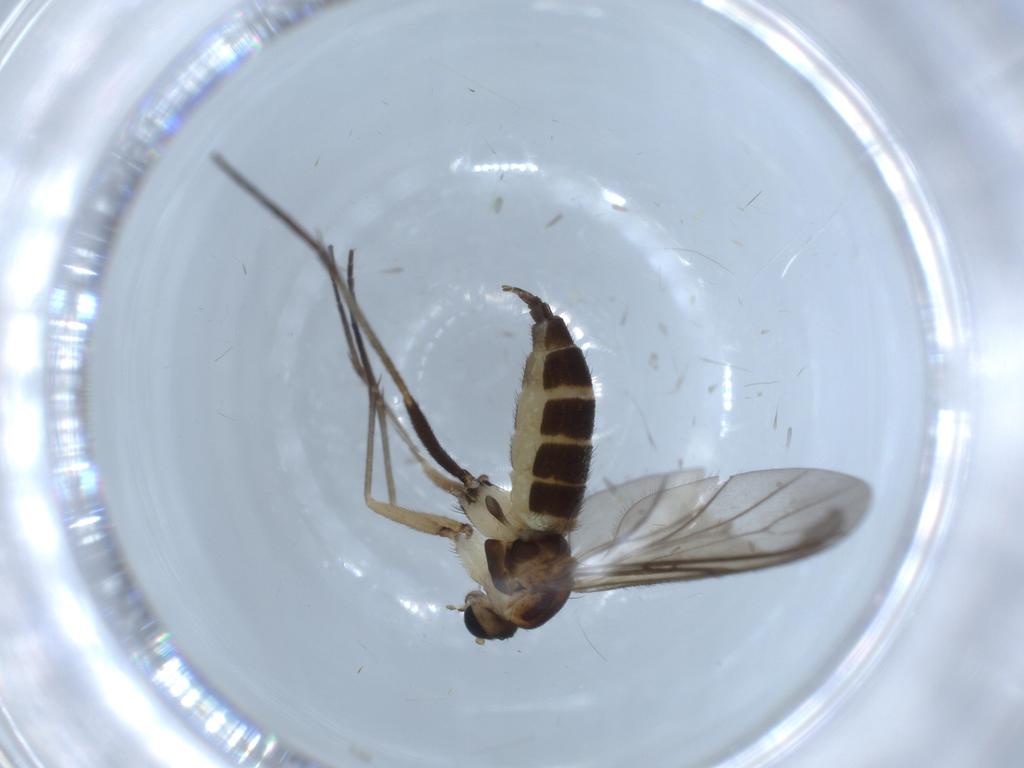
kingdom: Animalia
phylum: Arthropoda
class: Insecta
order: Diptera
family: Sciaridae
